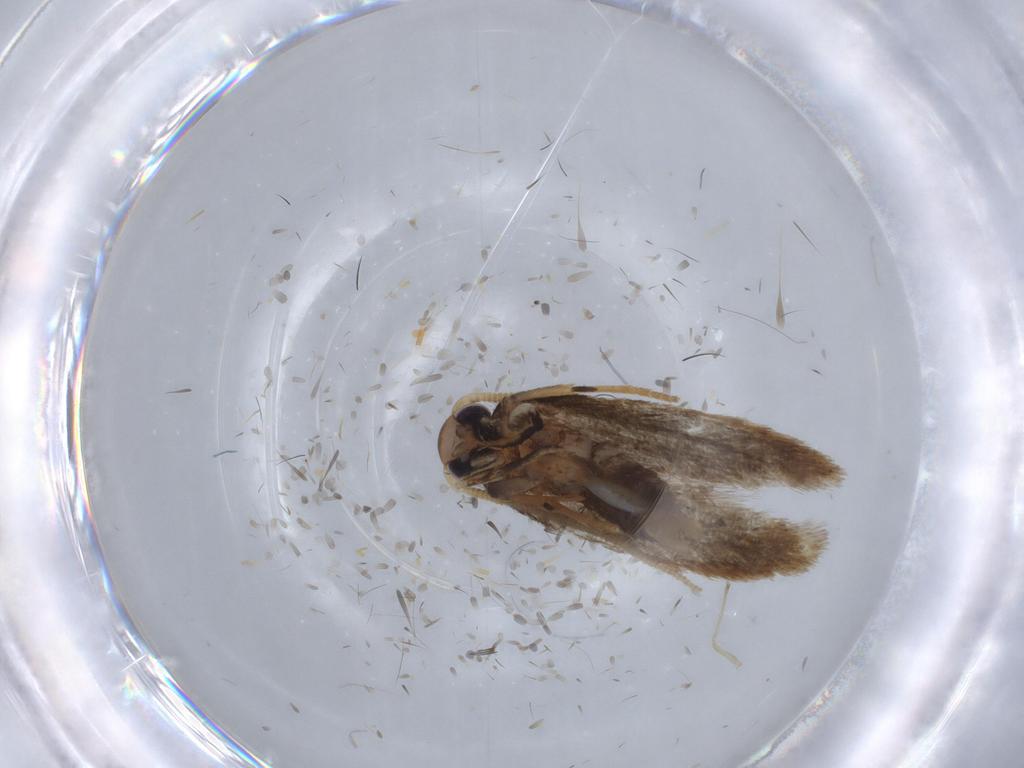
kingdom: Animalia
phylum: Arthropoda
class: Insecta
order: Lepidoptera
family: Coleophoridae
